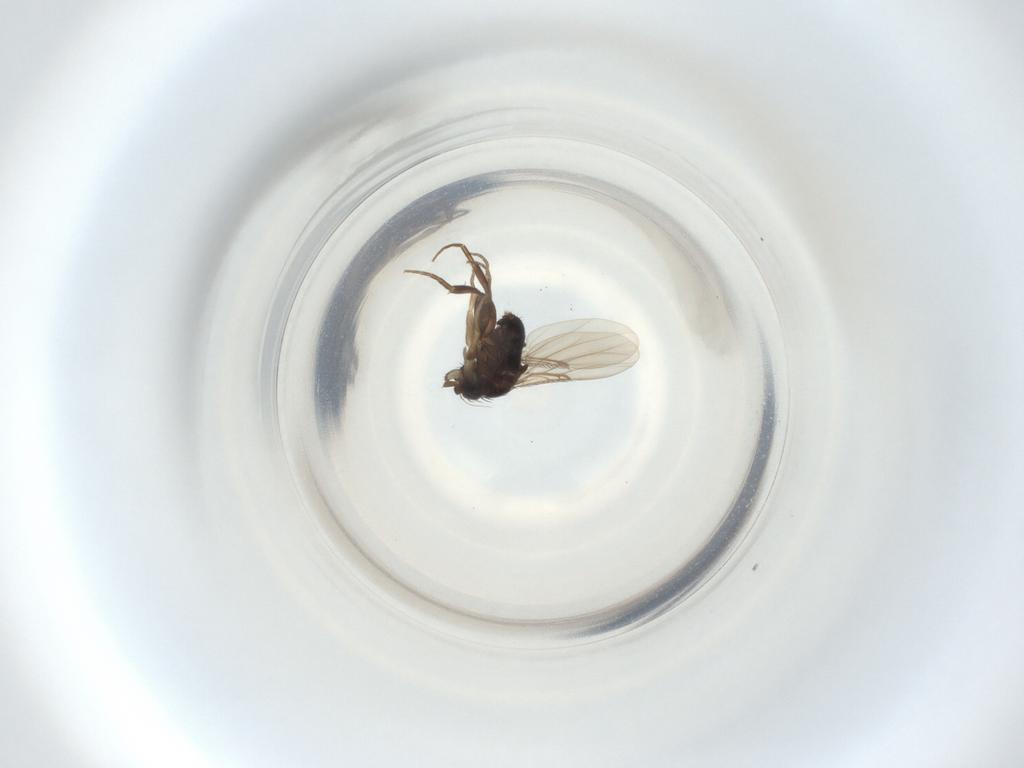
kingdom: Animalia
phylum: Arthropoda
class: Insecta
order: Diptera
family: Phoridae
